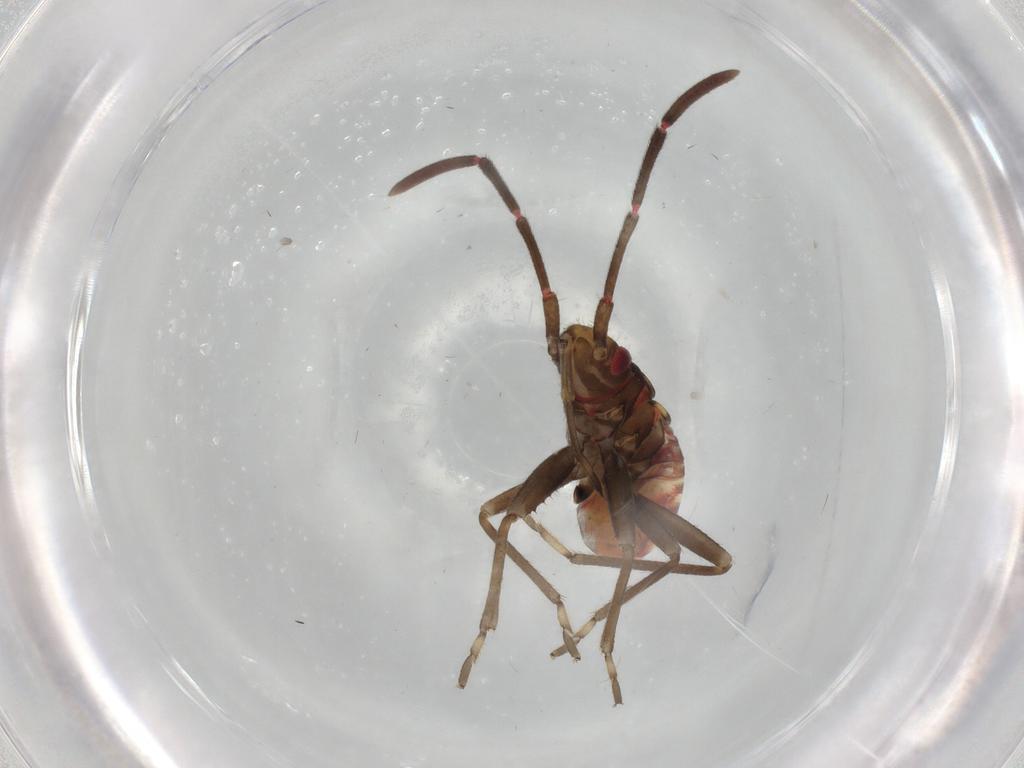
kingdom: Animalia
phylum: Arthropoda
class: Insecta
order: Hemiptera
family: Rhyparochromidae
